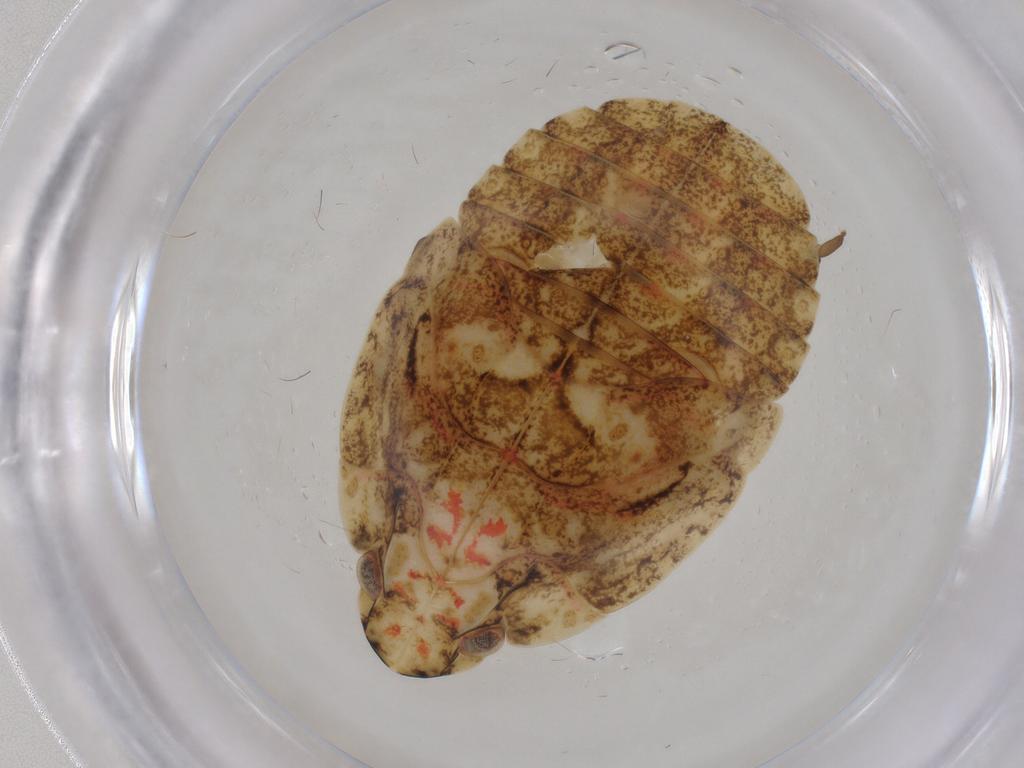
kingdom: Animalia
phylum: Arthropoda
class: Insecta
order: Hemiptera
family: Flatidae
